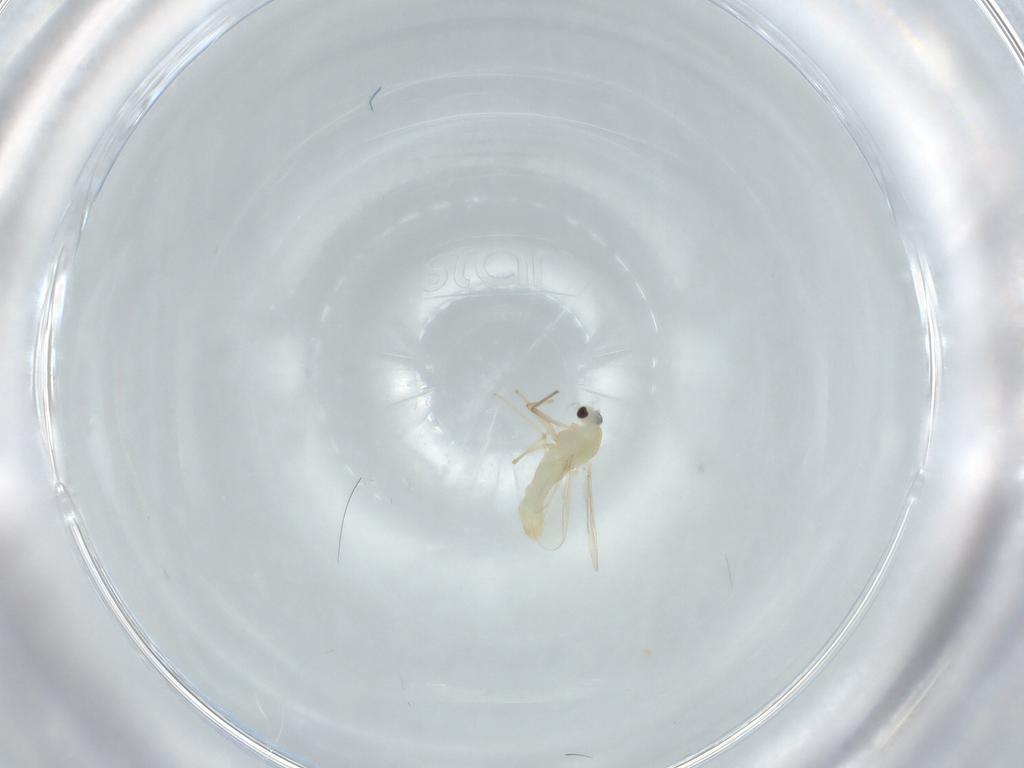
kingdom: Animalia
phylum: Arthropoda
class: Insecta
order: Diptera
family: Chironomidae
